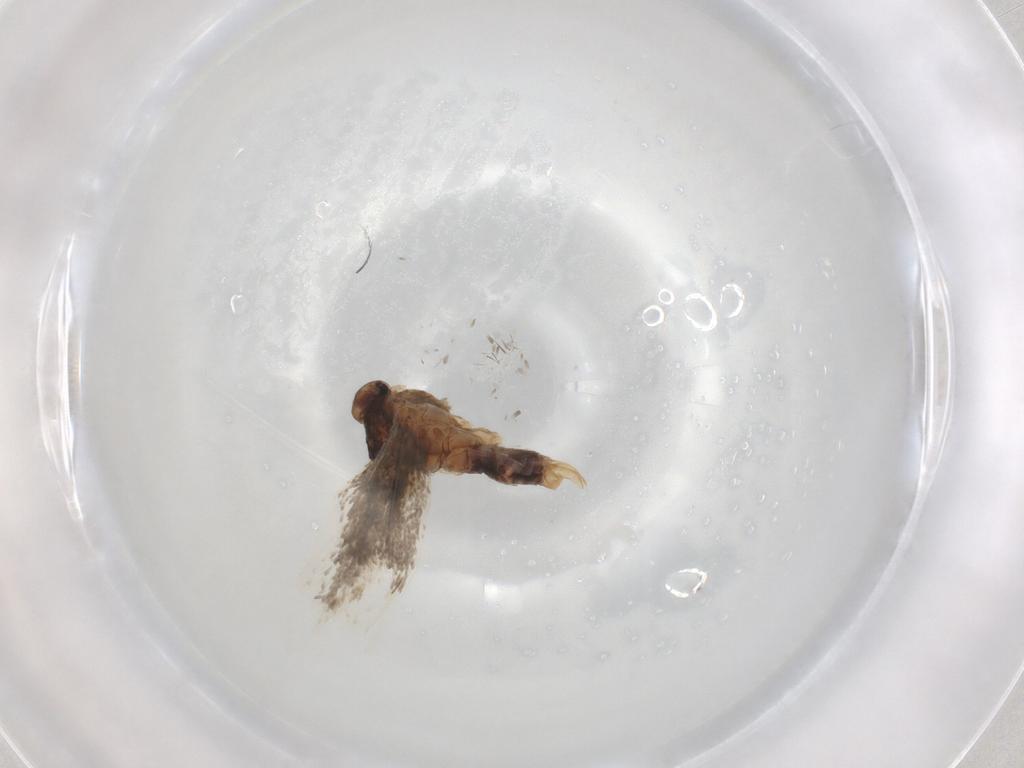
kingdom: Animalia
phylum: Arthropoda
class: Insecta
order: Lepidoptera
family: Elachistidae
